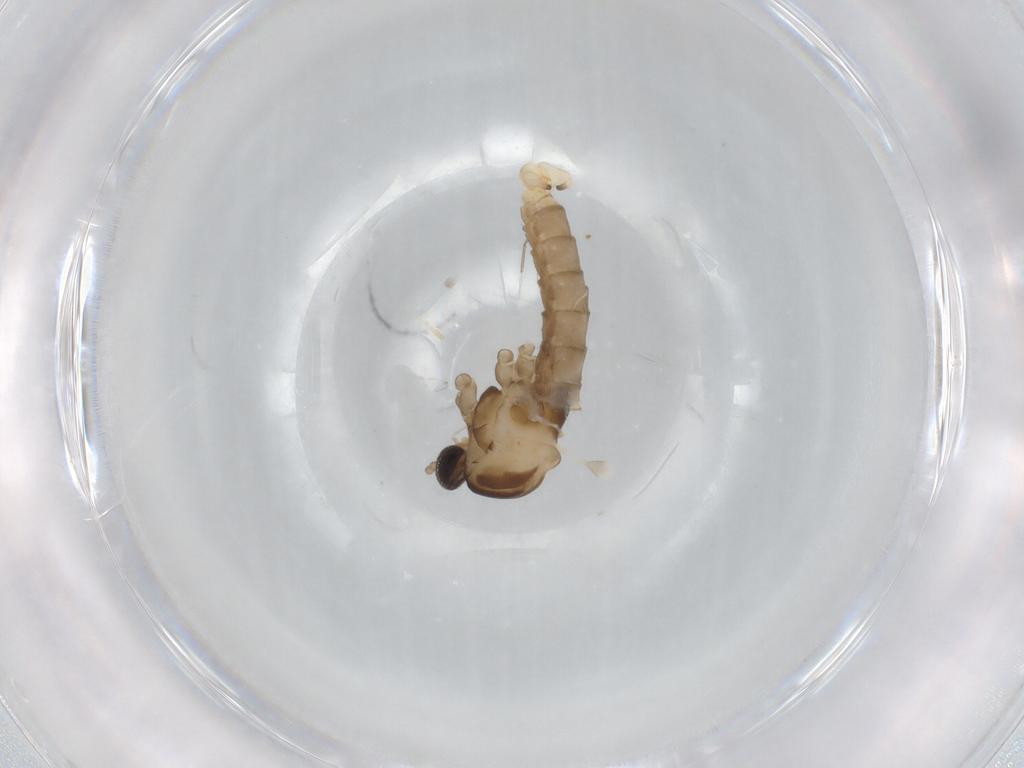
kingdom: Animalia
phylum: Arthropoda
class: Insecta
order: Diptera
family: Cecidomyiidae
